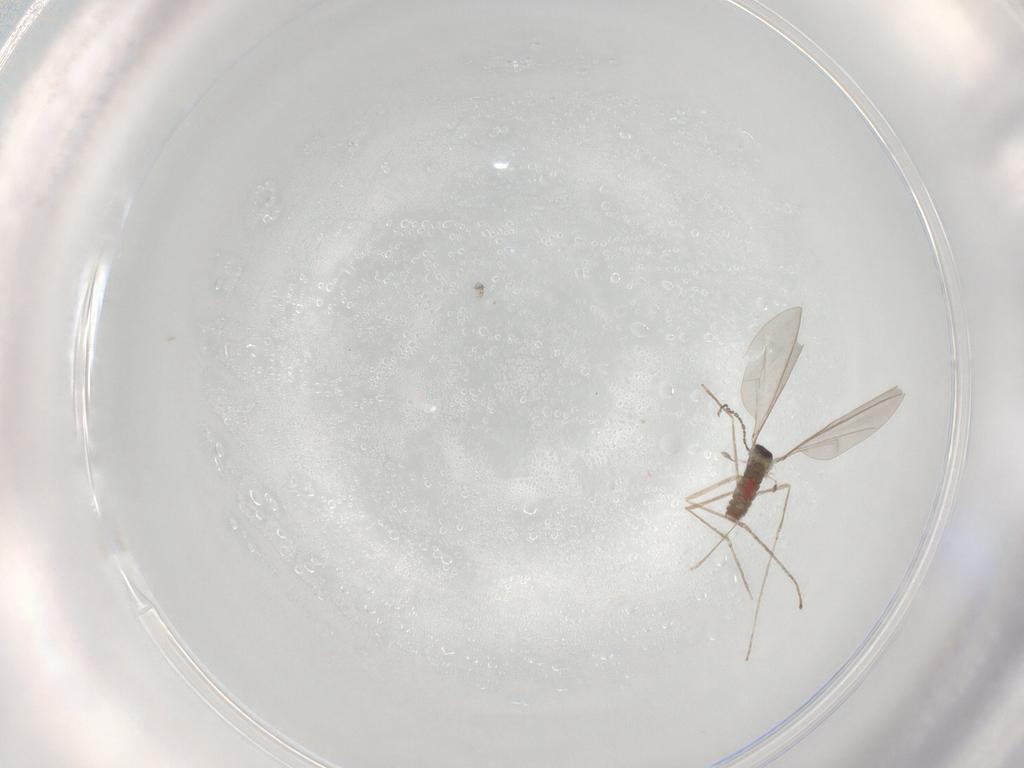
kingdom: Animalia
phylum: Arthropoda
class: Insecta
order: Diptera
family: Cecidomyiidae
